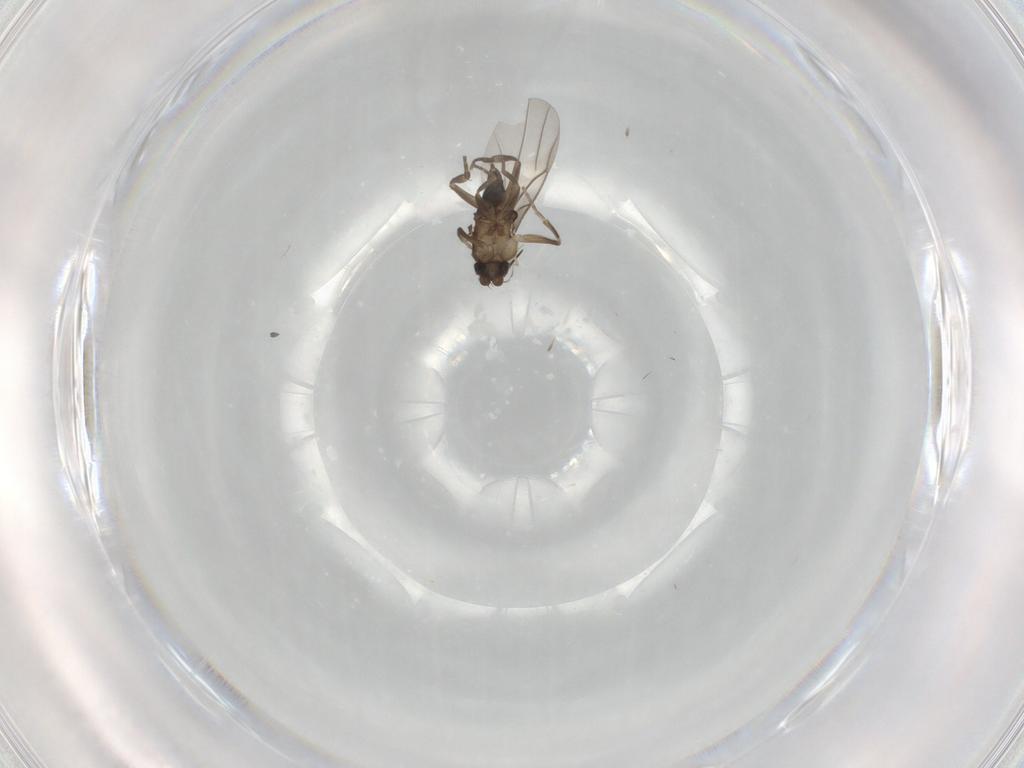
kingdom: Animalia
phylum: Arthropoda
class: Insecta
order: Diptera
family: Cecidomyiidae
